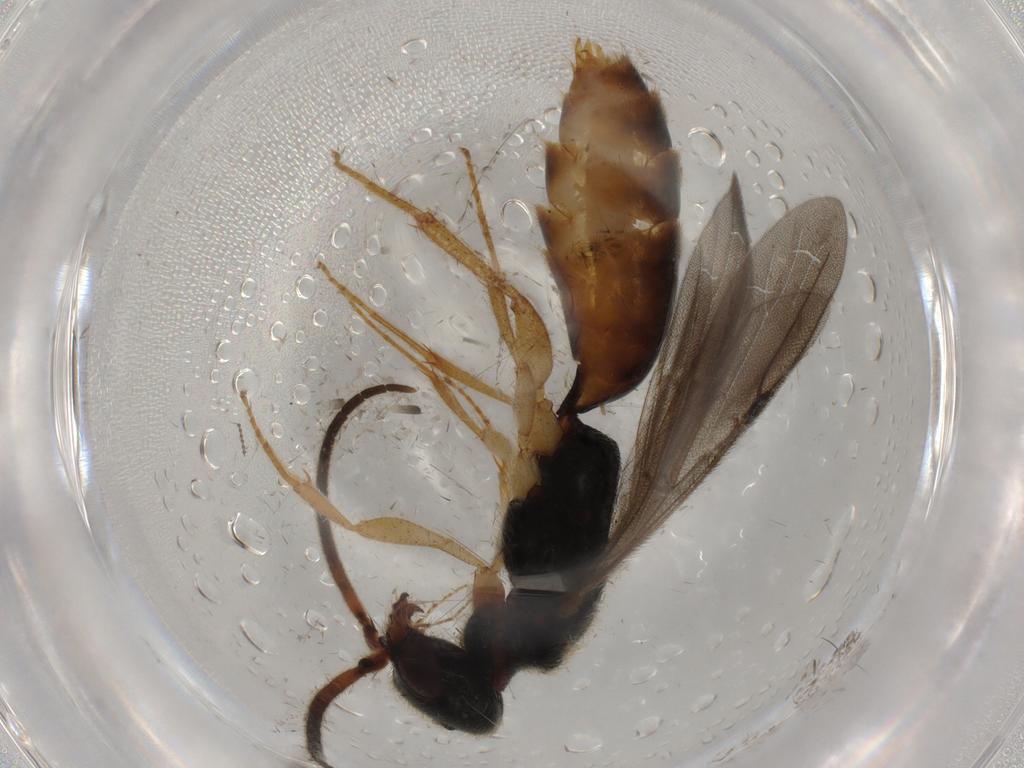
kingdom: Animalia
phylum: Arthropoda
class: Insecta
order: Hymenoptera
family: Bethylidae
